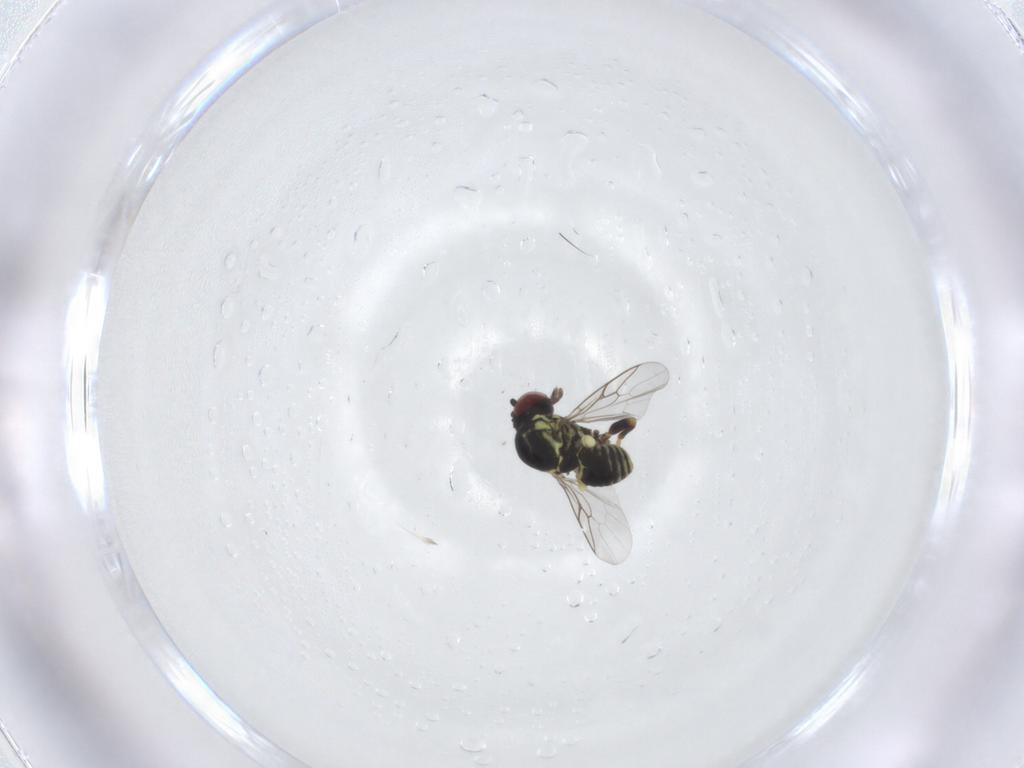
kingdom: Animalia
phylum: Arthropoda
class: Insecta
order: Diptera
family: Mythicomyiidae
